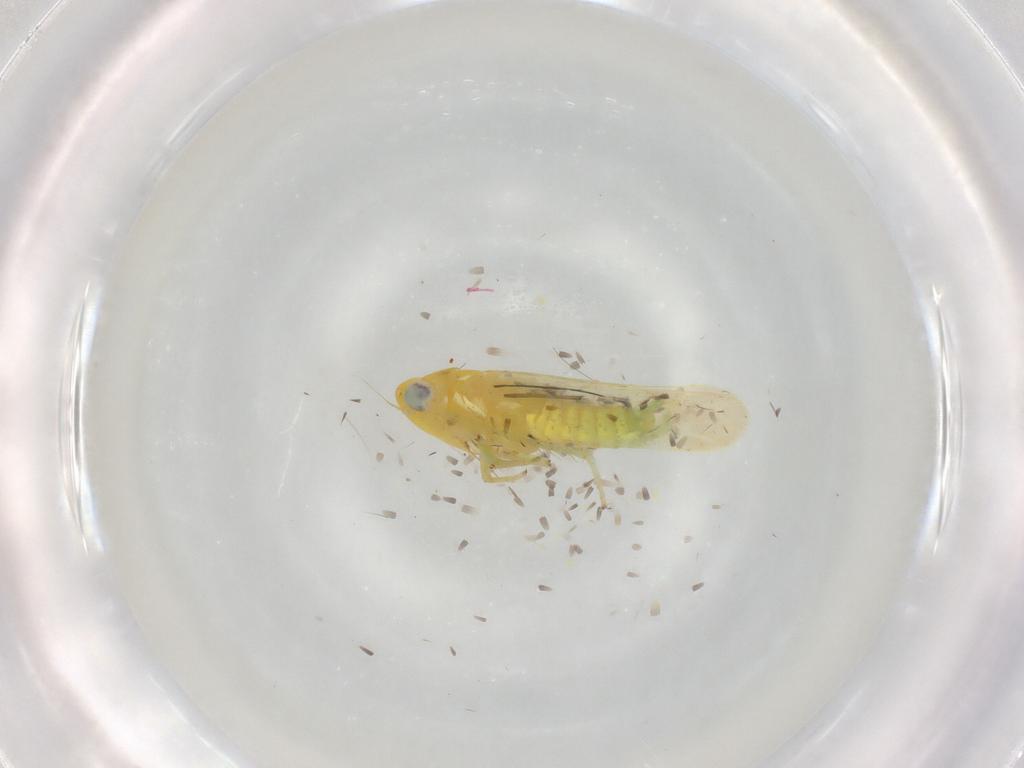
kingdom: Animalia
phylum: Arthropoda
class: Insecta
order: Hemiptera
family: Cicadellidae
